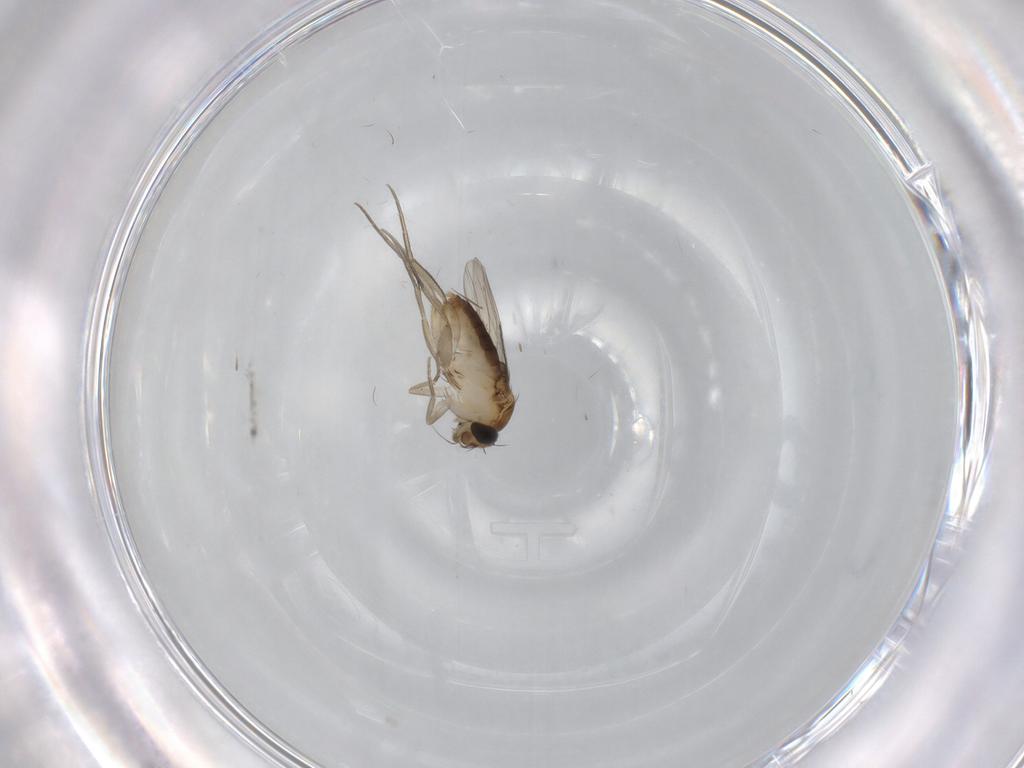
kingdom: Animalia
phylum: Arthropoda
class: Insecta
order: Diptera
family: Phoridae
